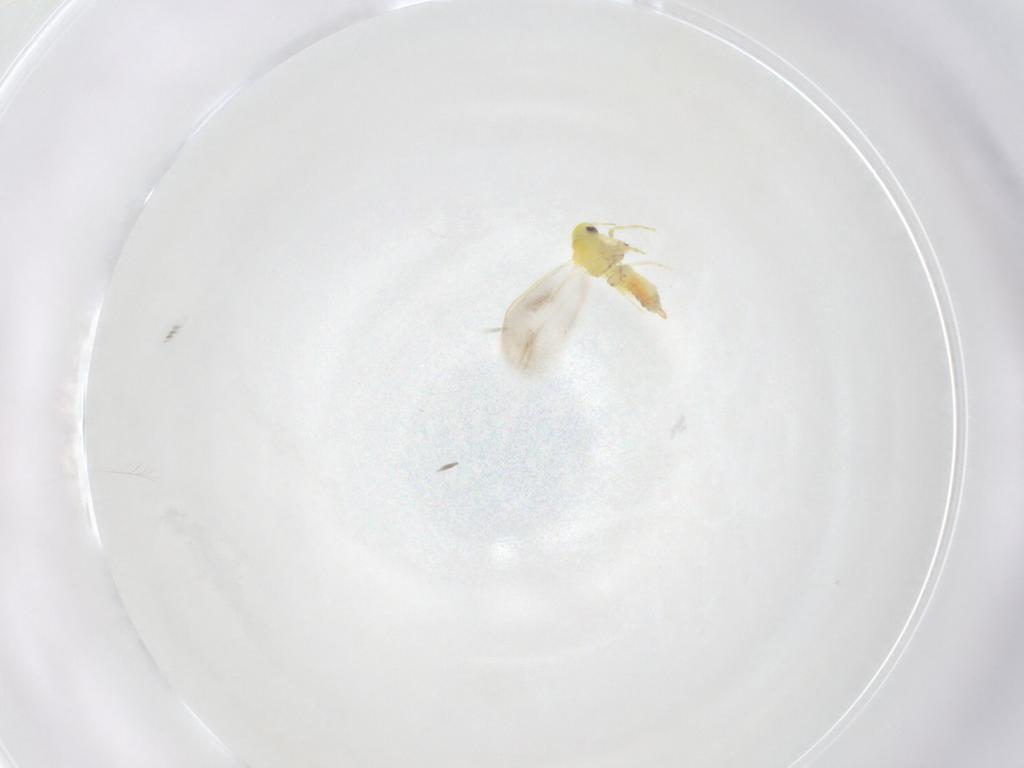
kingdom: Animalia
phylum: Arthropoda
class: Insecta
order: Hemiptera
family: Aleyrodidae
